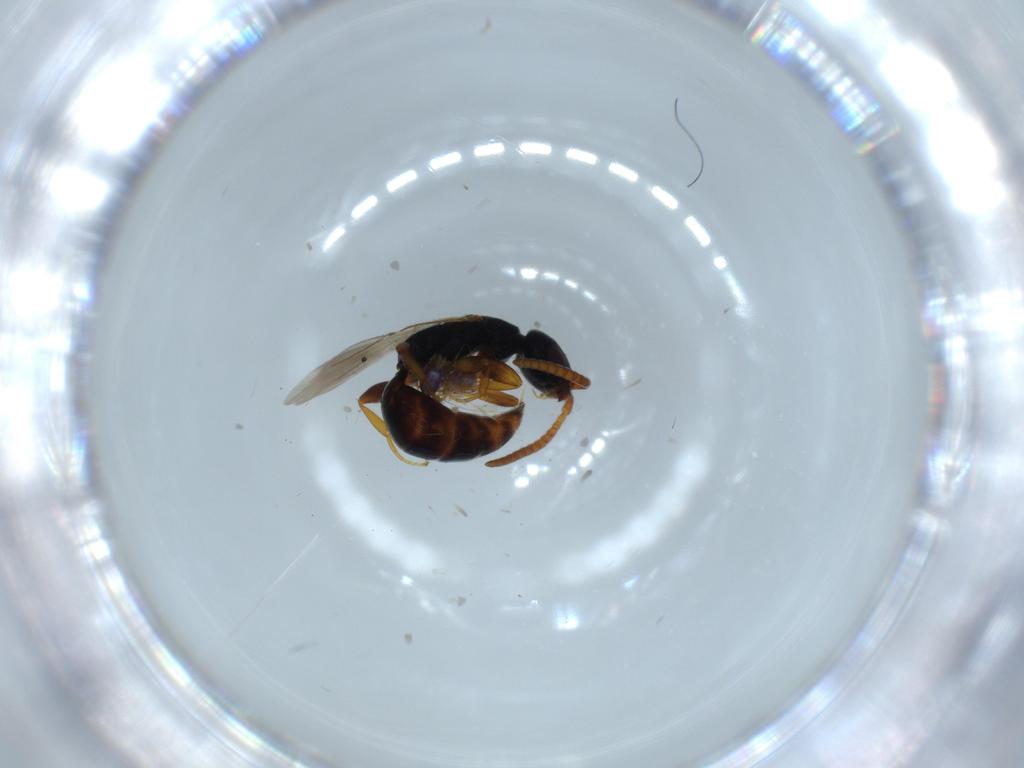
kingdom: Animalia
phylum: Arthropoda
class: Insecta
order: Hymenoptera
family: Bethylidae
